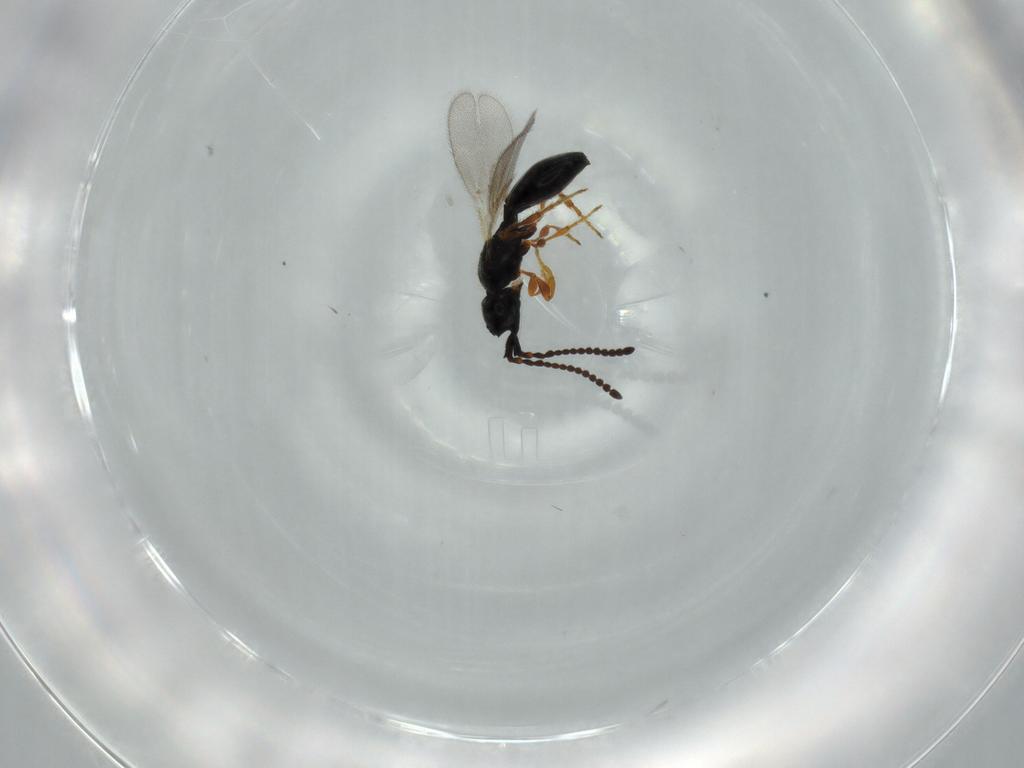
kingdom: Animalia
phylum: Arthropoda
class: Insecta
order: Hymenoptera
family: Diapriidae
